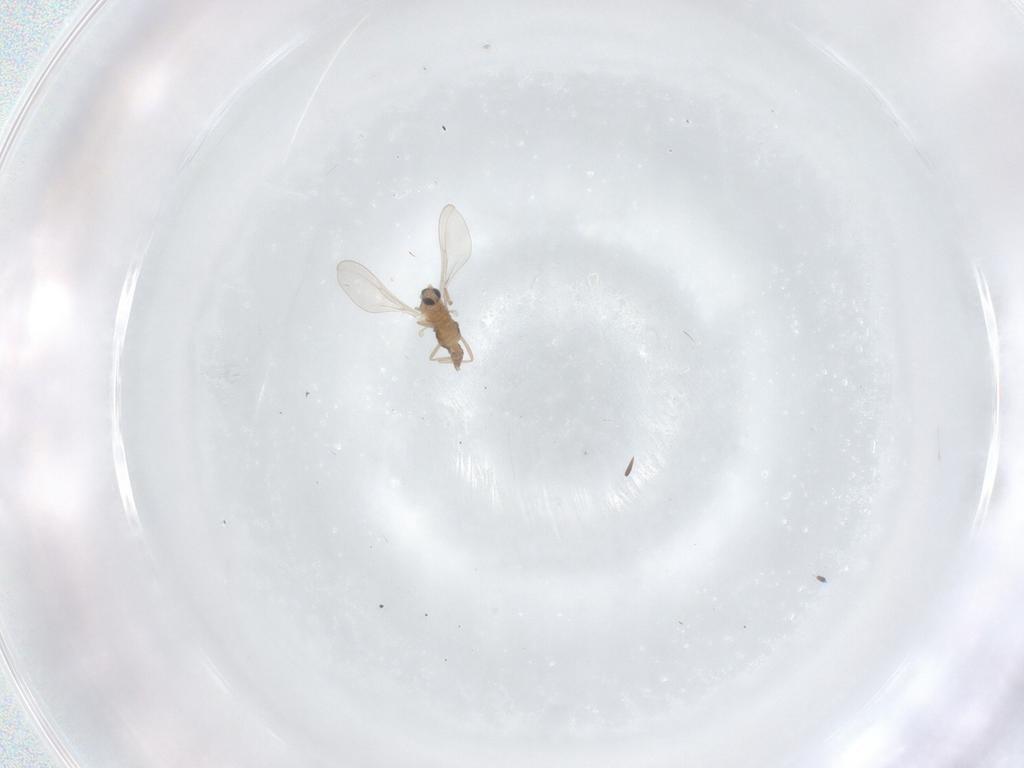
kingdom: Animalia
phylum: Arthropoda
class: Insecta
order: Diptera
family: Cecidomyiidae
